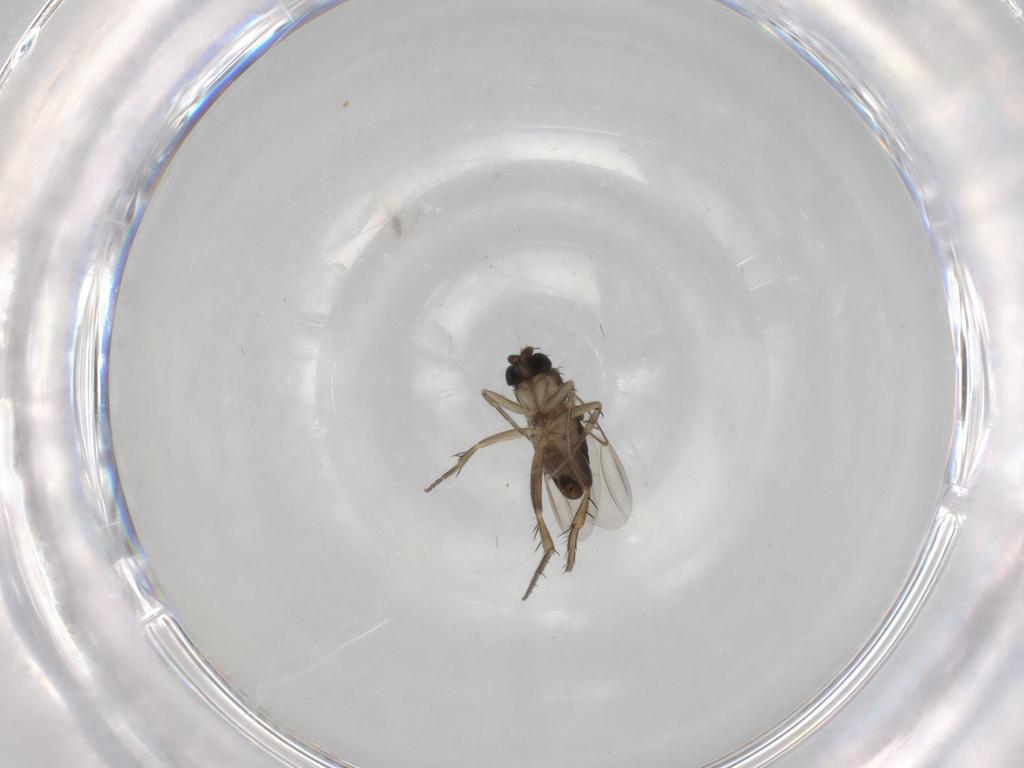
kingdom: Animalia
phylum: Arthropoda
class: Insecta
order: Diptera
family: Phoridae
